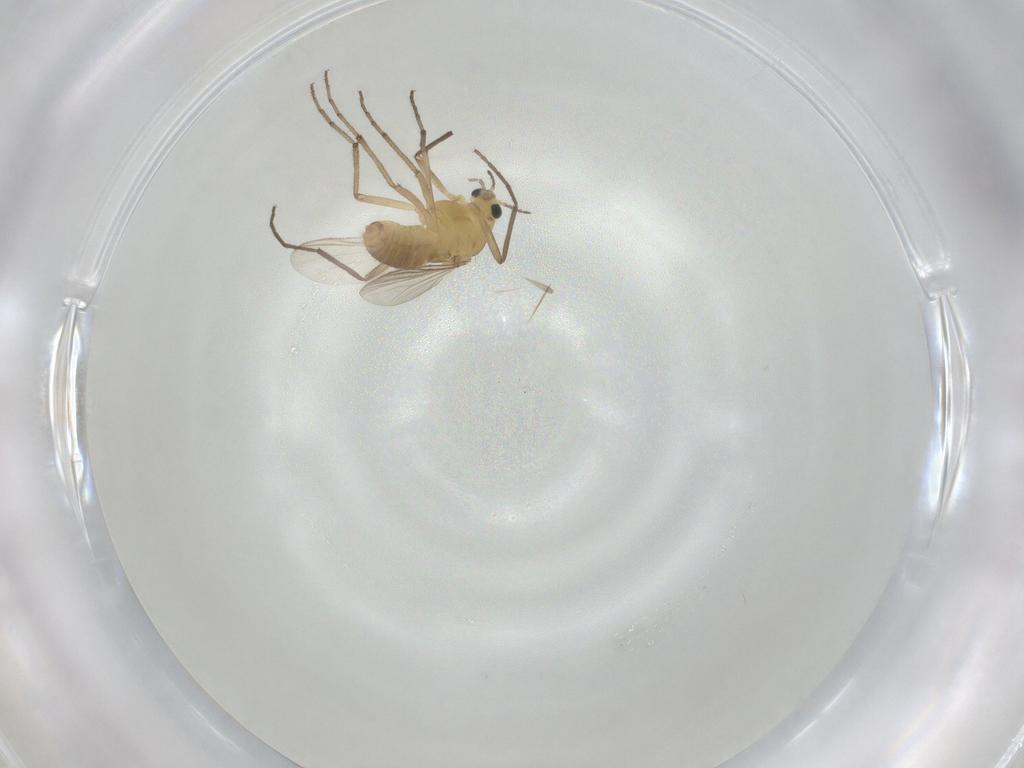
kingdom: Animalia
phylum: Arthropoda
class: Insecta
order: Diptera
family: Chironomidae
